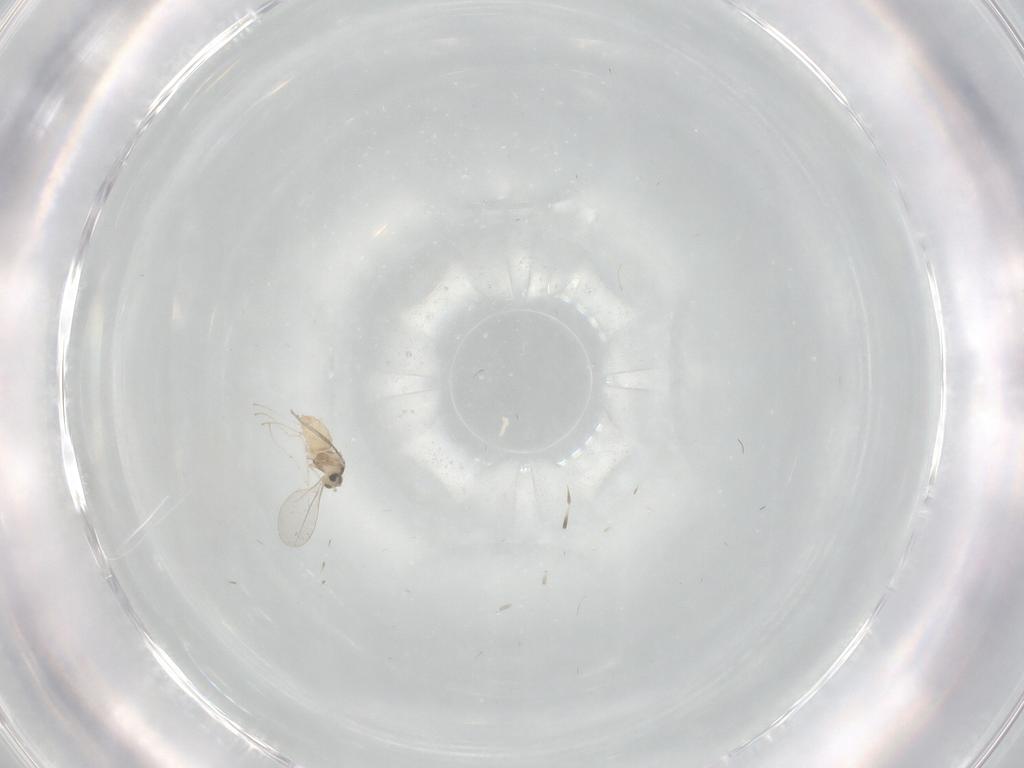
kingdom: Animalia
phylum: Arthropoda
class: Insecta
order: Diptera
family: Cecidomyiidae
